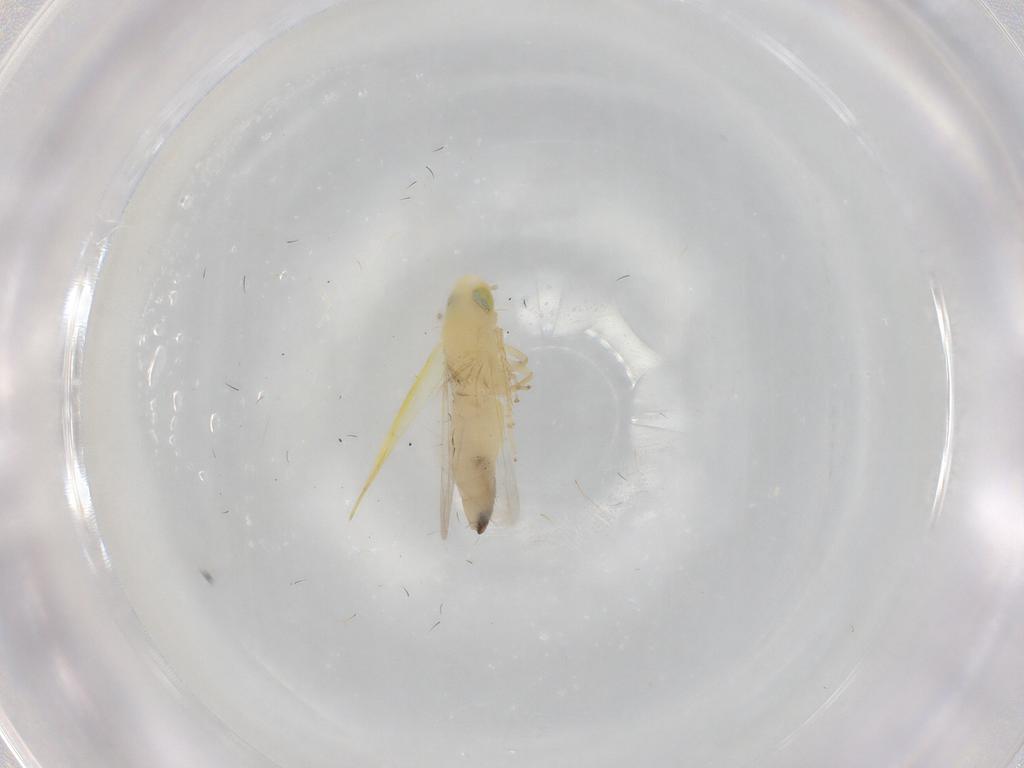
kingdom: Animalia
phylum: Arthropoda
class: Insecta
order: Hemiptera
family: Cicadellidae
